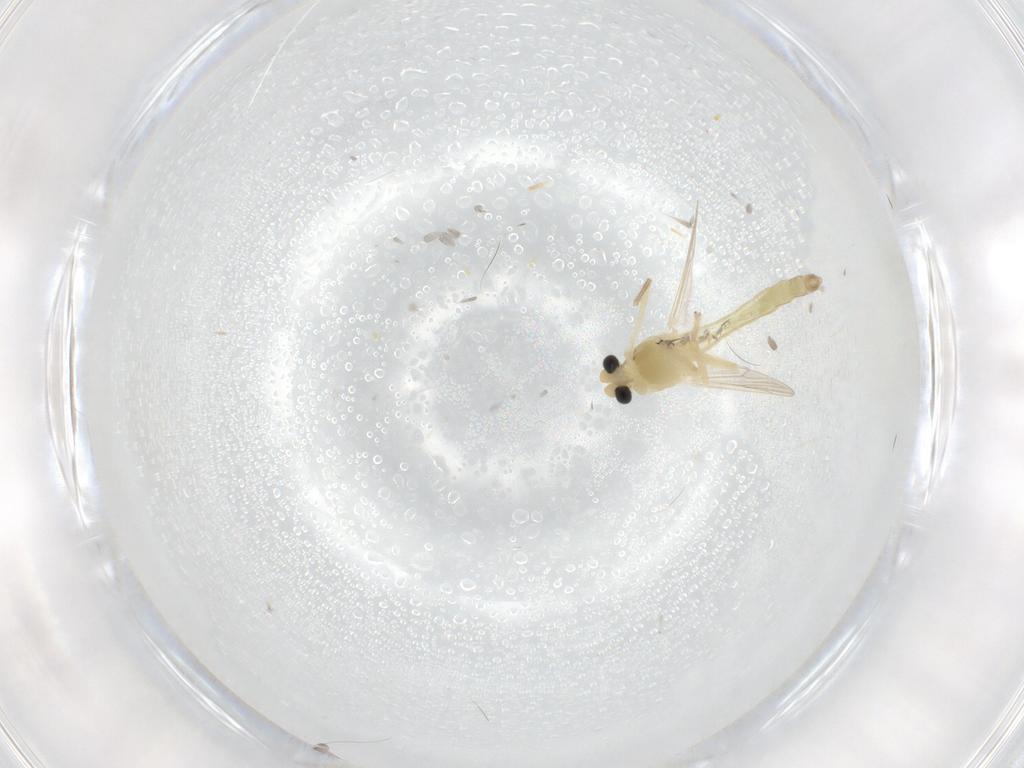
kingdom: Animalia
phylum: Arthropoda
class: Insecta
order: Diptera
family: Chironomidae
